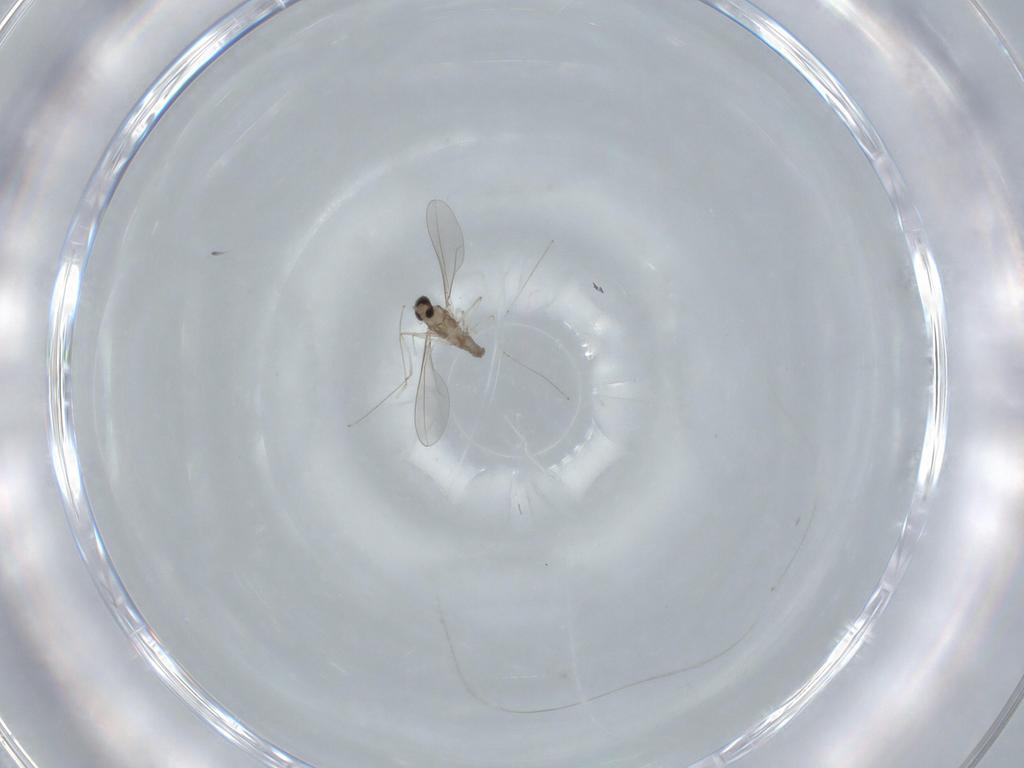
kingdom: Animalia
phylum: Arthropoda
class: Insecta
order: Diptera
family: Cecidomyiidae
